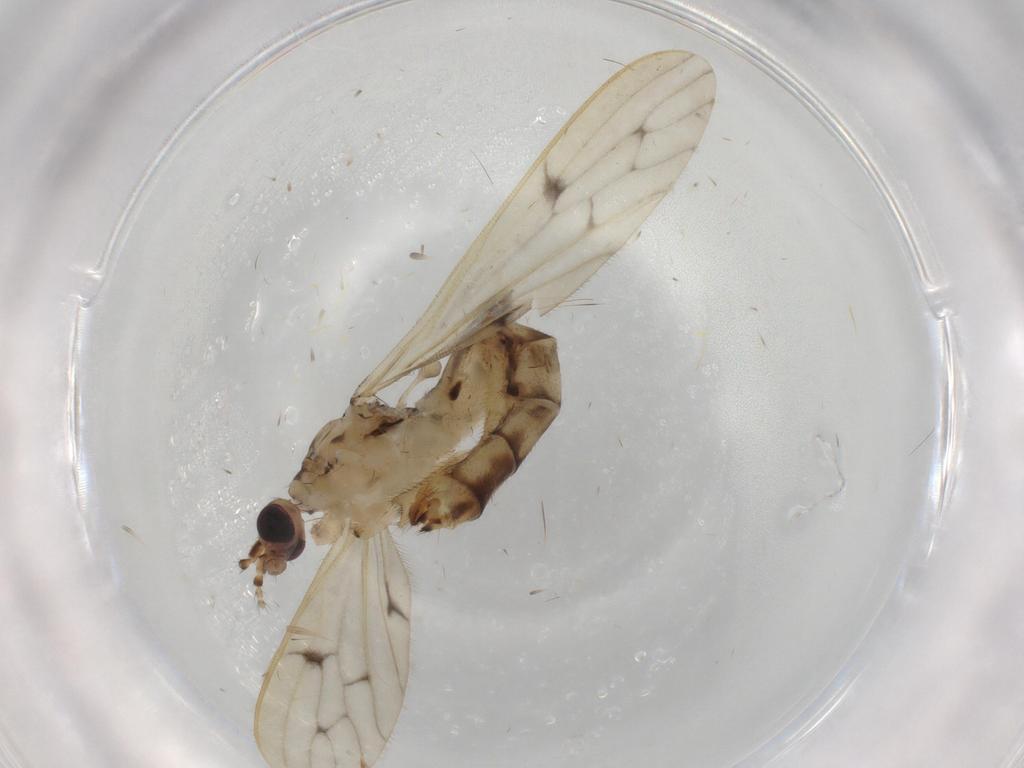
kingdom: Animalia
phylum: Arthropoda
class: Insecta
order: Diptera
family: Limoniidae
